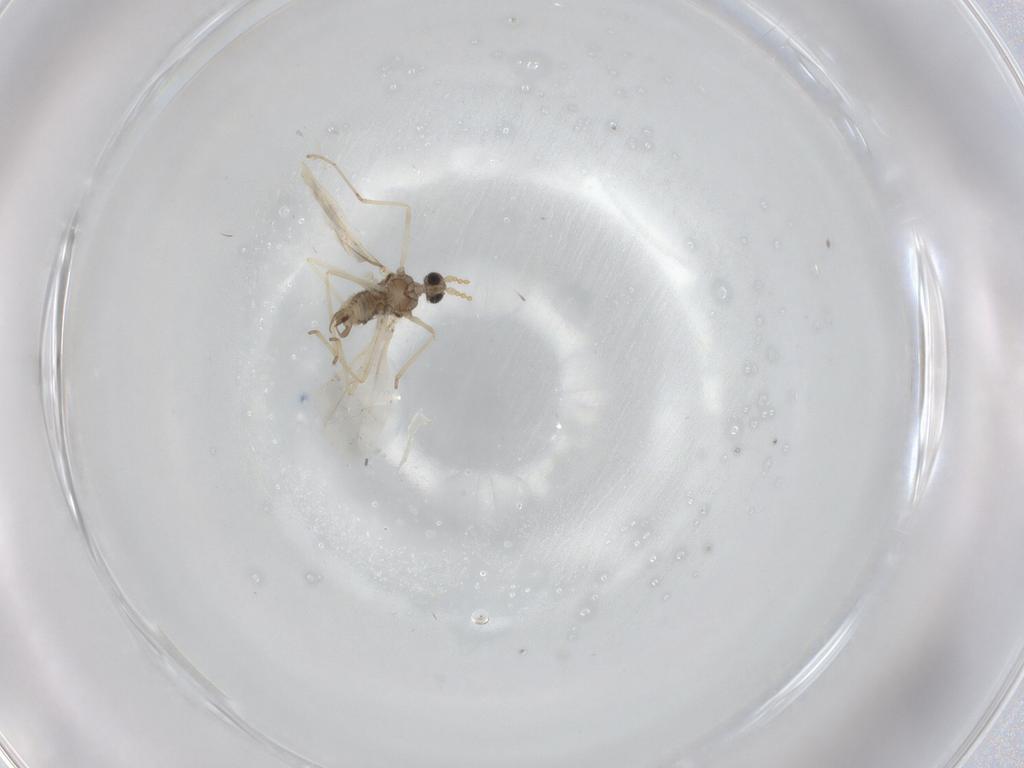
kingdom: Animalia
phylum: Arthropoda
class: Insecta
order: Diptera
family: Cecidomyiidae
